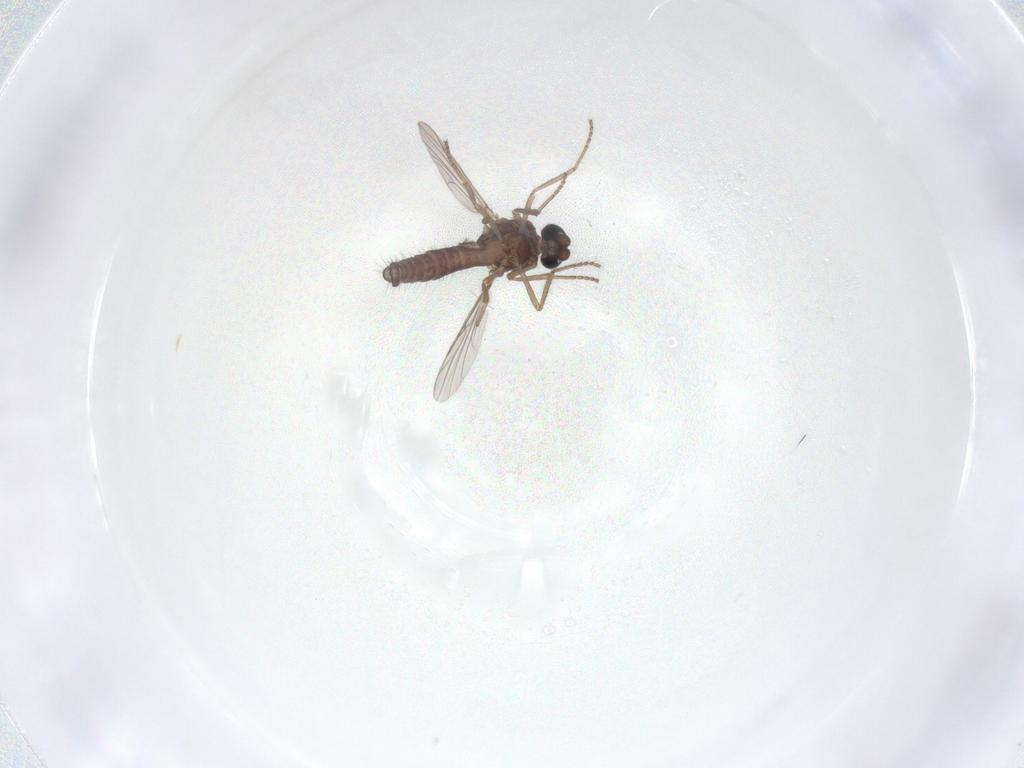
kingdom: Animalia
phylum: Arthropoda
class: Insecta
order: Diptera
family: Ceratopogonidae
